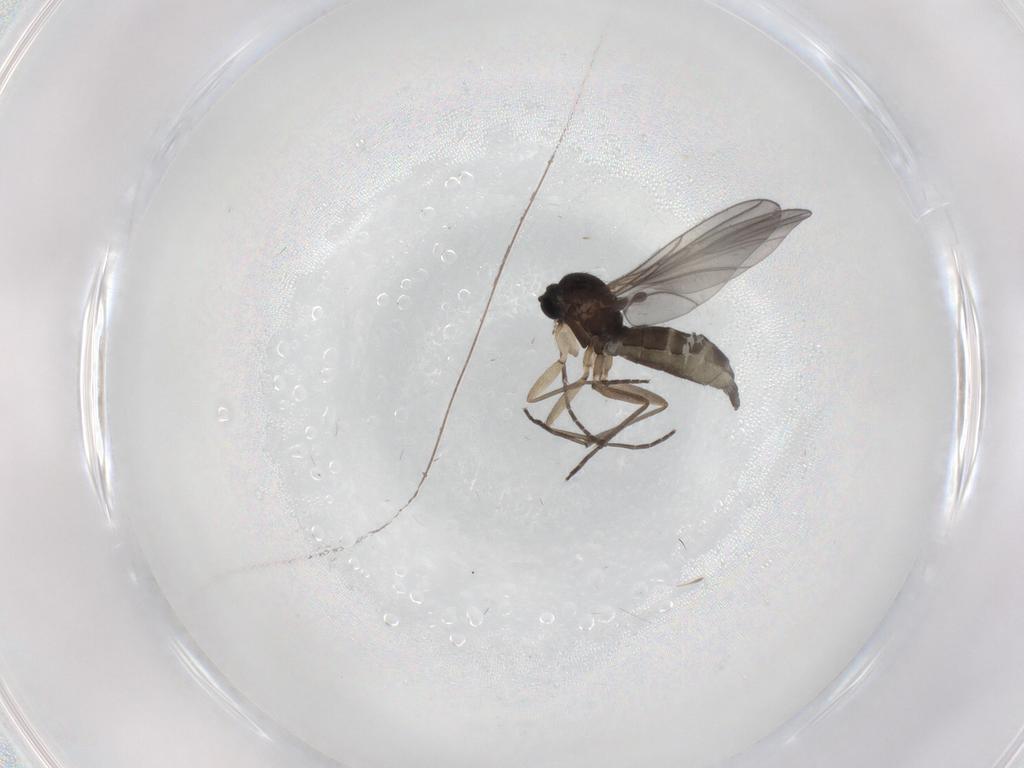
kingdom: Animalia
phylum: Arthropoda
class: Insecta
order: Diptera
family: Sciaridae
